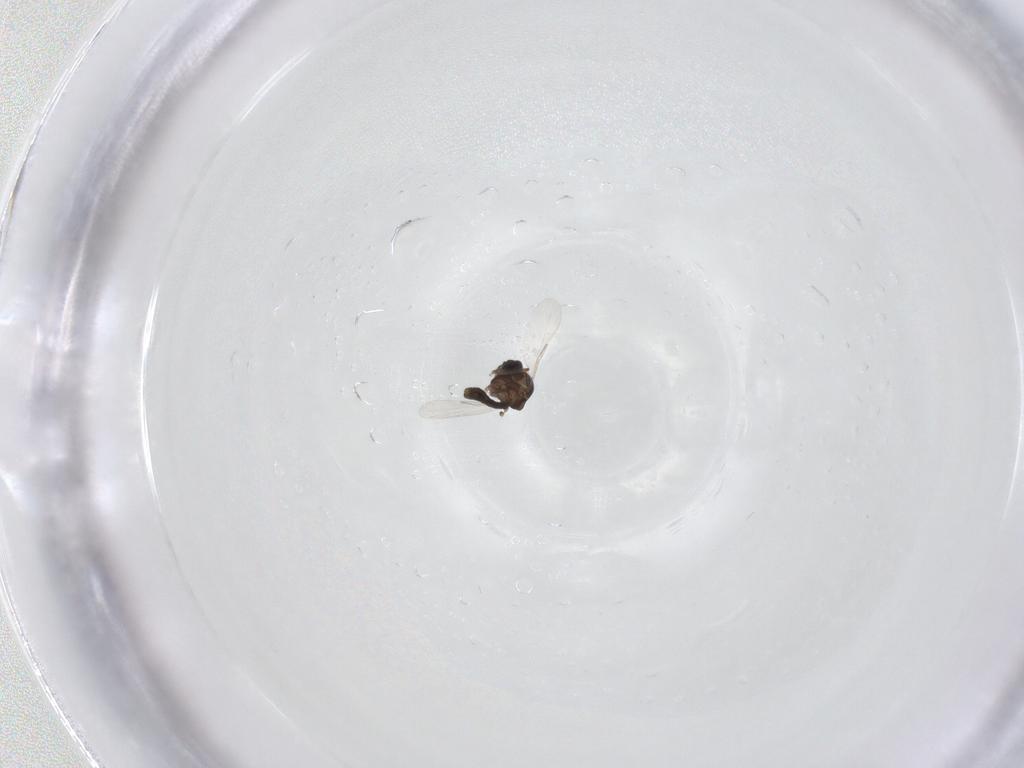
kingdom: Animalia
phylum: Arthropoda
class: Insecta
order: Diptera
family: Ceratopogonidae
